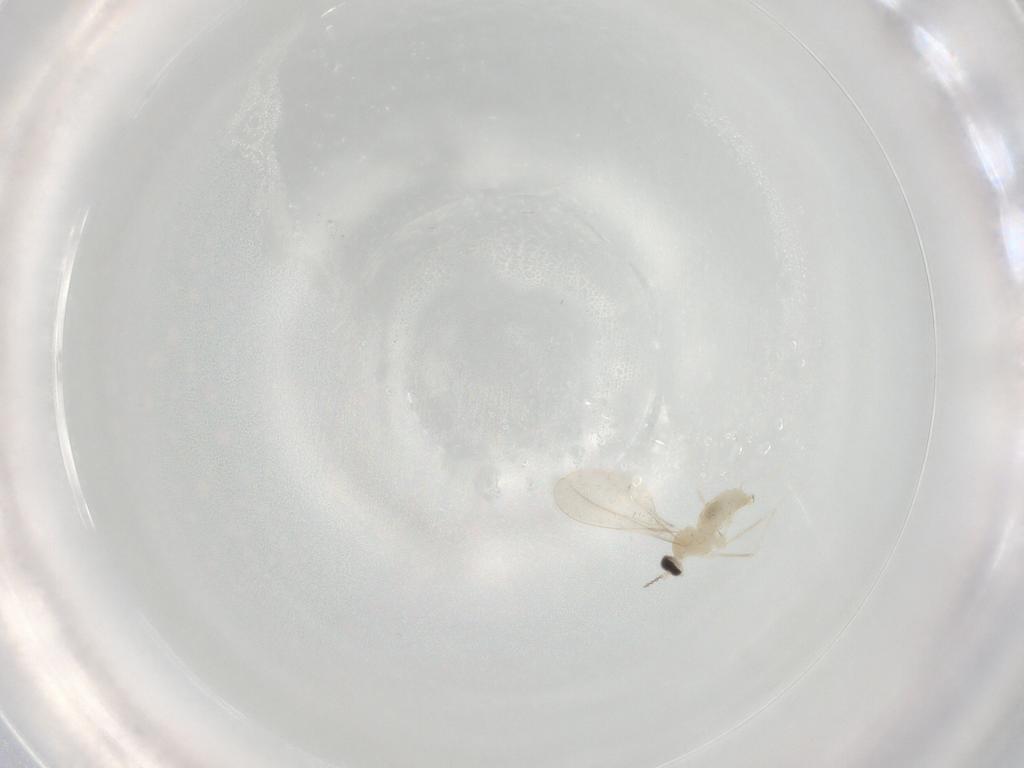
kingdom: Animalia
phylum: Arthropoda
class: Insecta
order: Diptera
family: Cecidomyiidae
